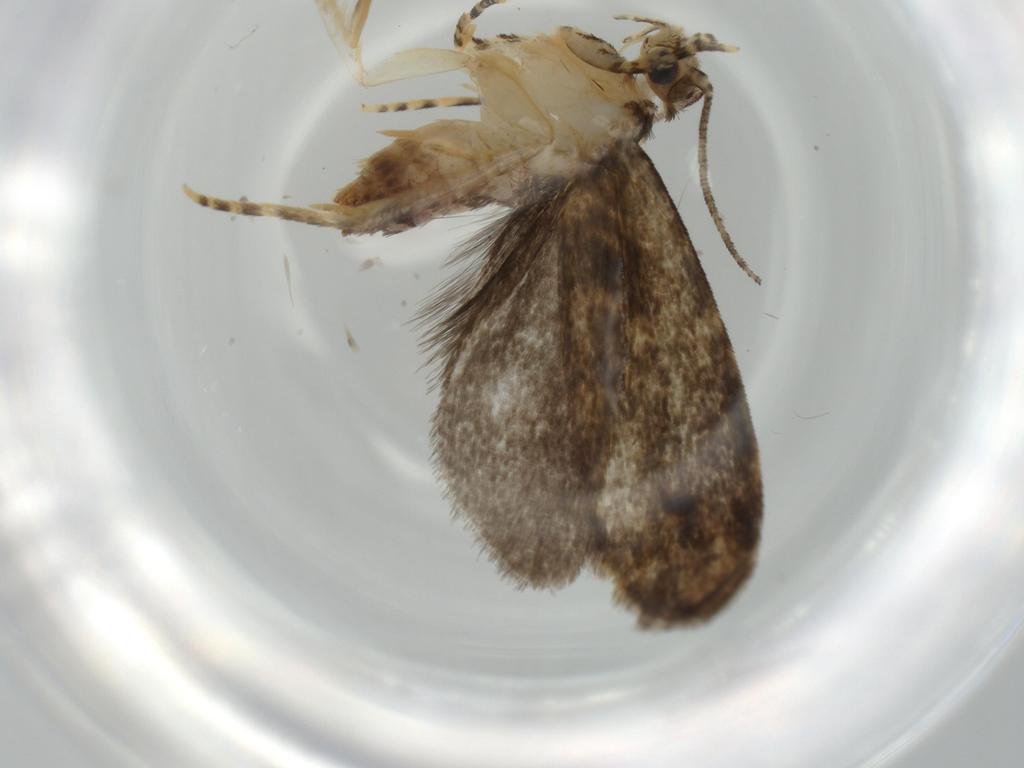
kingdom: Animalia
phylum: Arthropoda
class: Insecta
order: Lepidoptera
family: Tineidae
